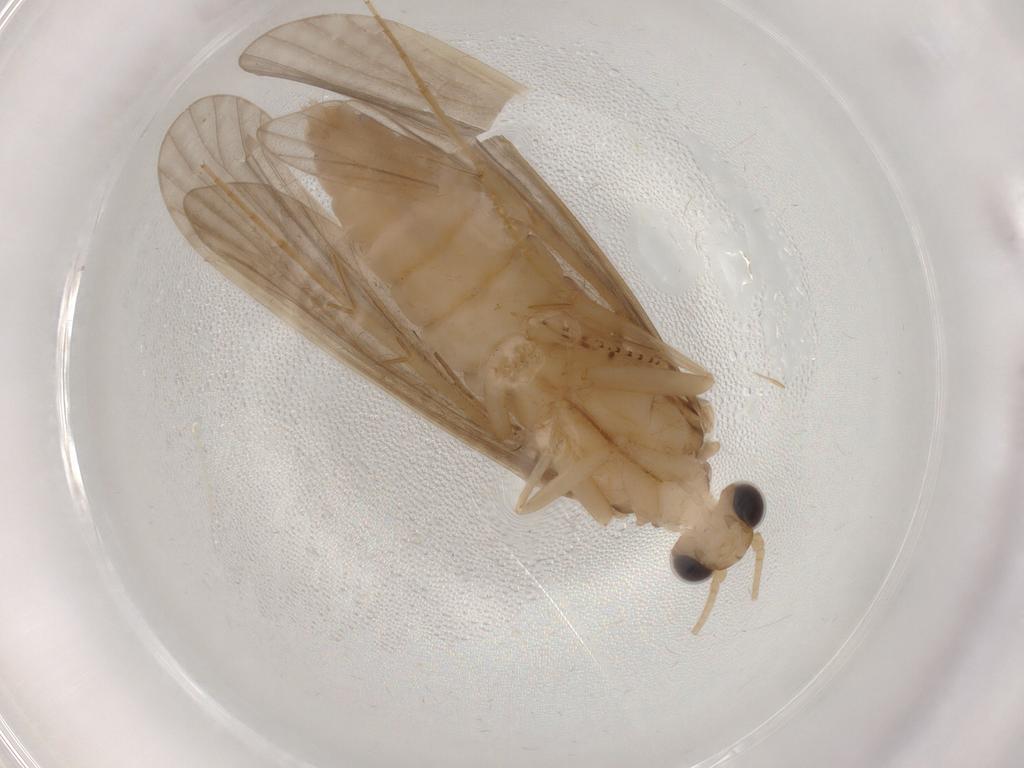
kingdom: Animalia
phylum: Arthropoda
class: Insecta
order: Trichoptera
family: Ecnomidae
